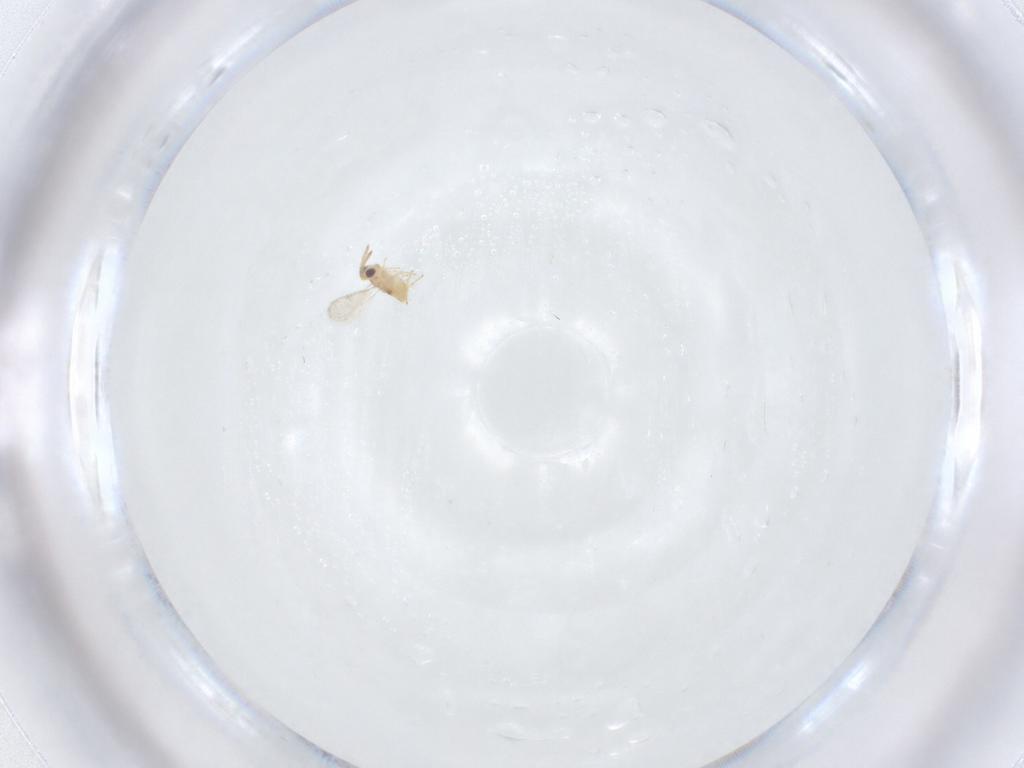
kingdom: Animalia
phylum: Arthropoda
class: Insecta
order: Hymenoptera
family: Aphelinidae
